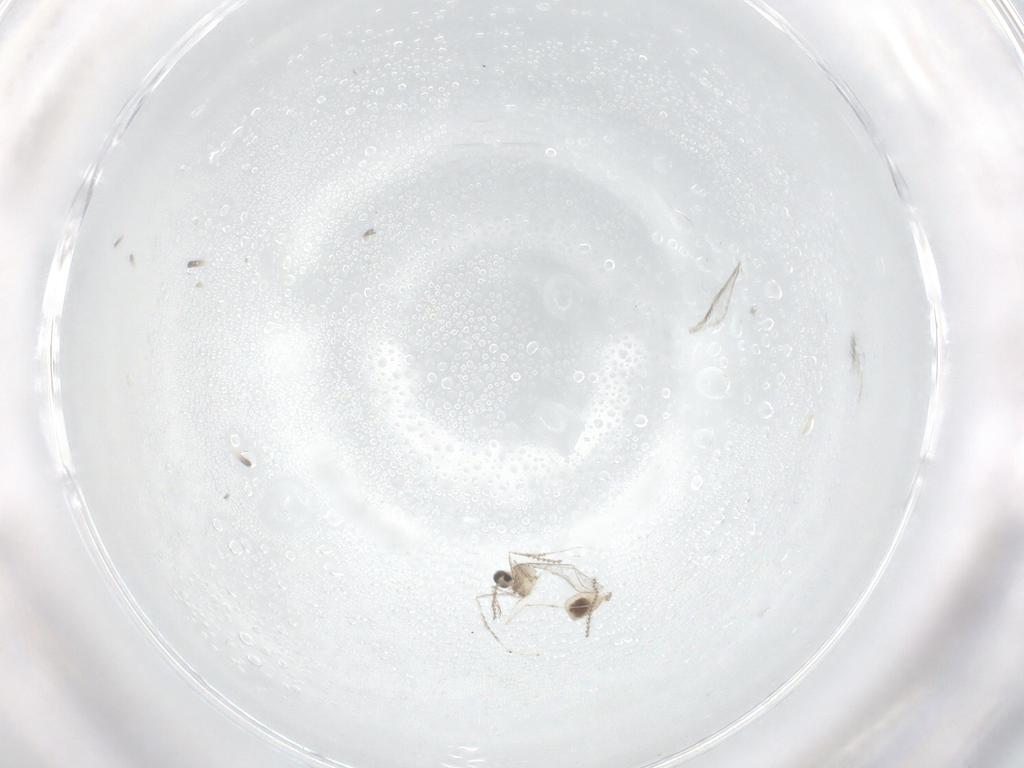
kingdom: Animalia
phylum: Arthropoda
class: Insecta
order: Diptera
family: Cecidomyiidae
